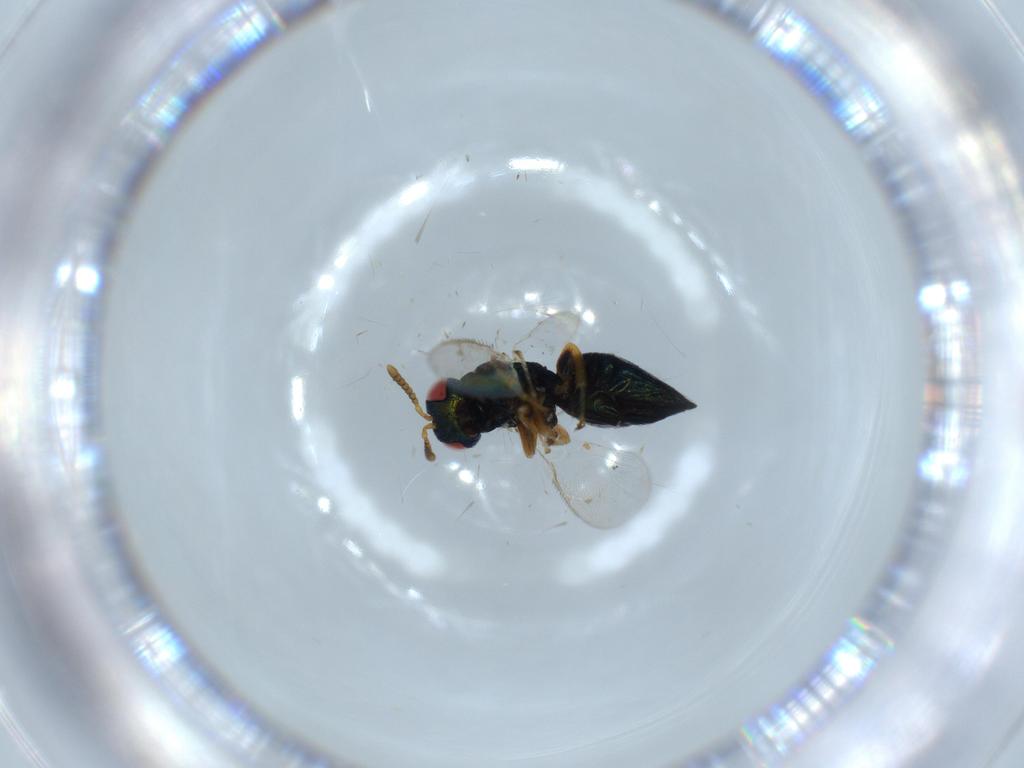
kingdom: Animalia
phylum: Arthropoda
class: Insecta
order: Hymenoptera
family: Pteromalidae
